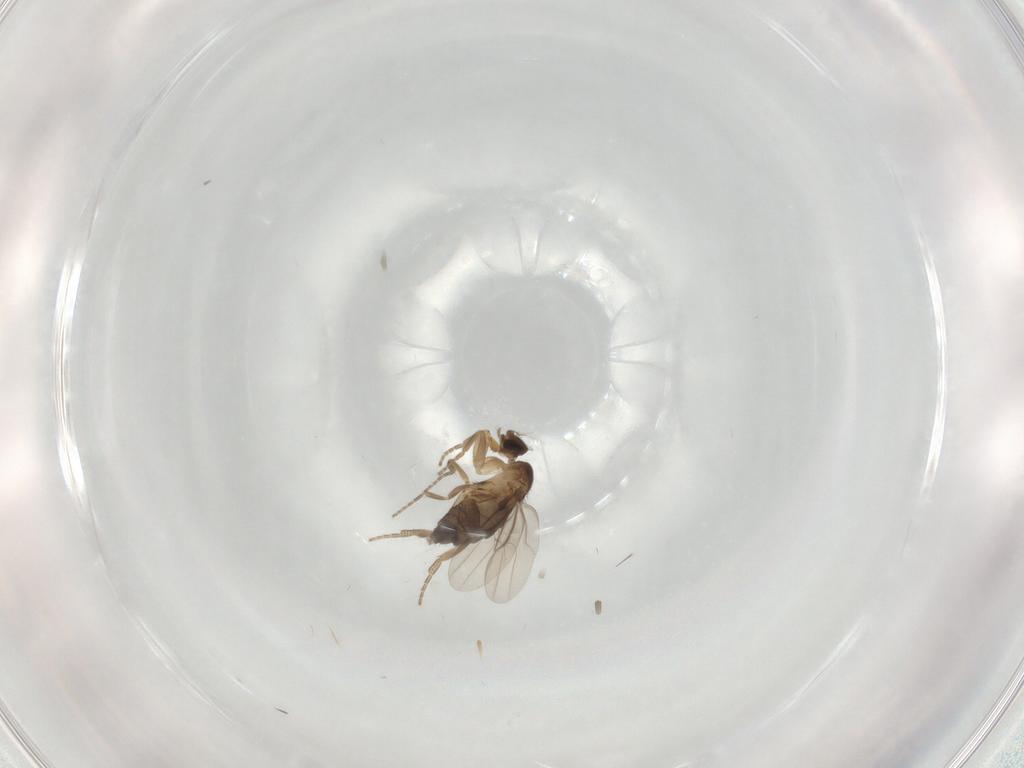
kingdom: Animalia
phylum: Arthropoda
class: Insecta
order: Diptera
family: Phoridae
